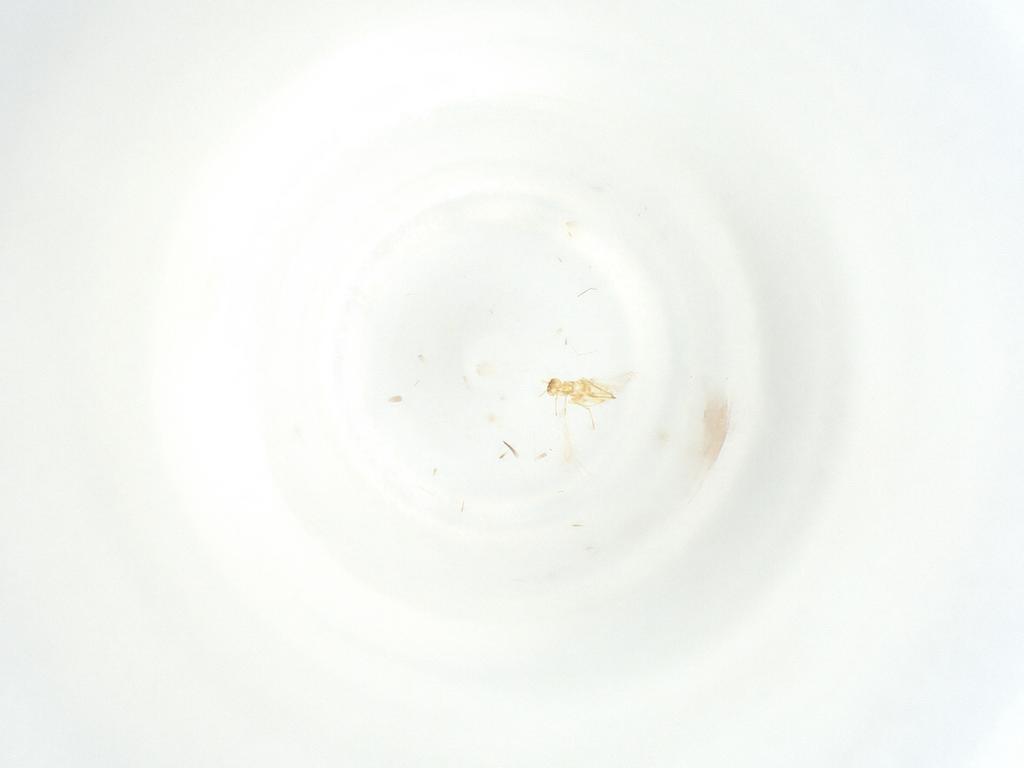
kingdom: Animalia
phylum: Arthropoda
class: Insecta
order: Hymenoptera
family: Mymaridae
